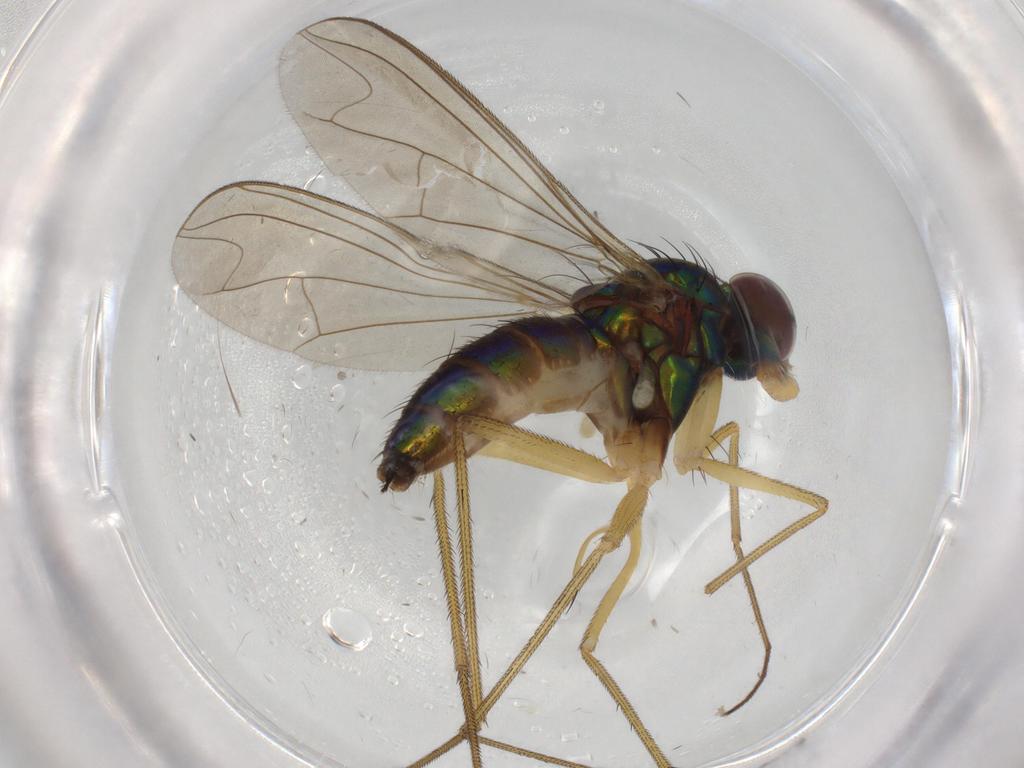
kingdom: Animalia
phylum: Arthropoda
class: Insecta
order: Diptera
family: Dolichopodidae
